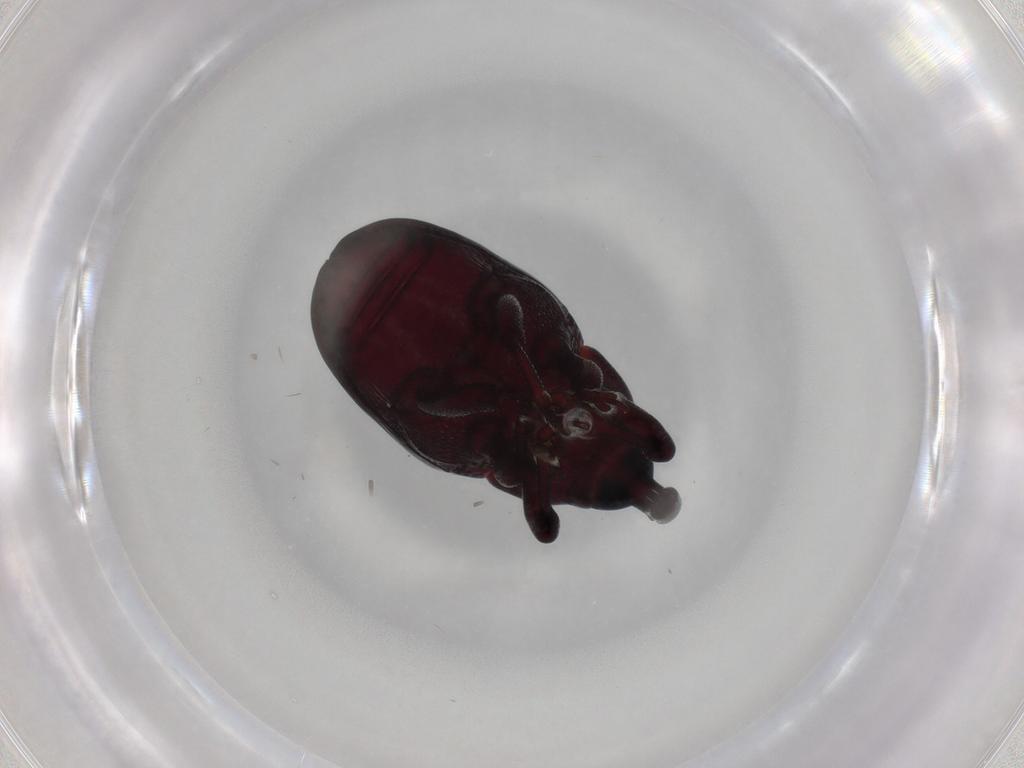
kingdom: Animalia
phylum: Arthropoda
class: Insecta
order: Coleoptera
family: Curculionidae
